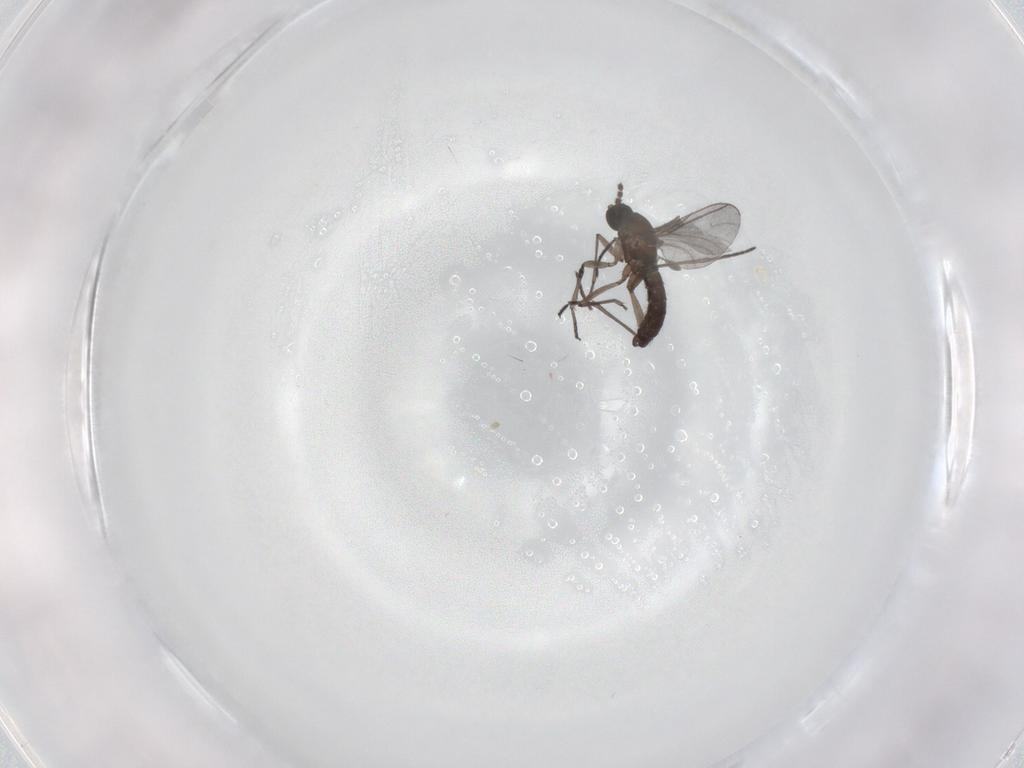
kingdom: Animalia
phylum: Arthropoda
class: Insecta
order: Diptera
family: Sciaridae
